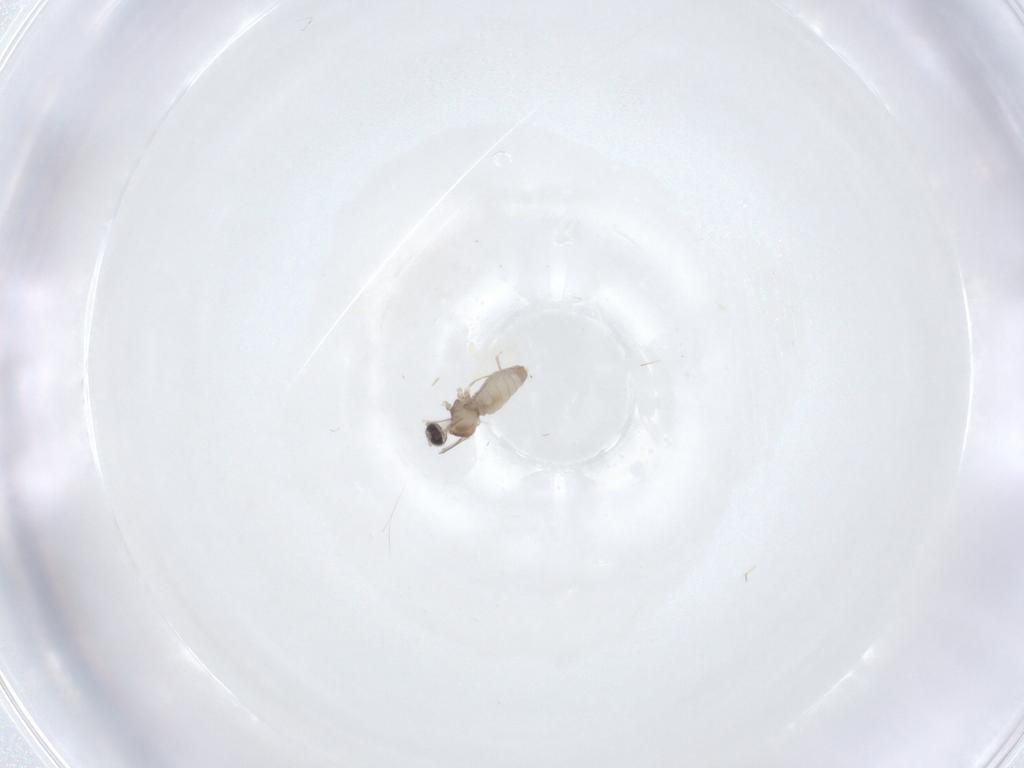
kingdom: Animalia
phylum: Arthropoda
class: Insecta
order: Diptera
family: Cecidomyiidae
